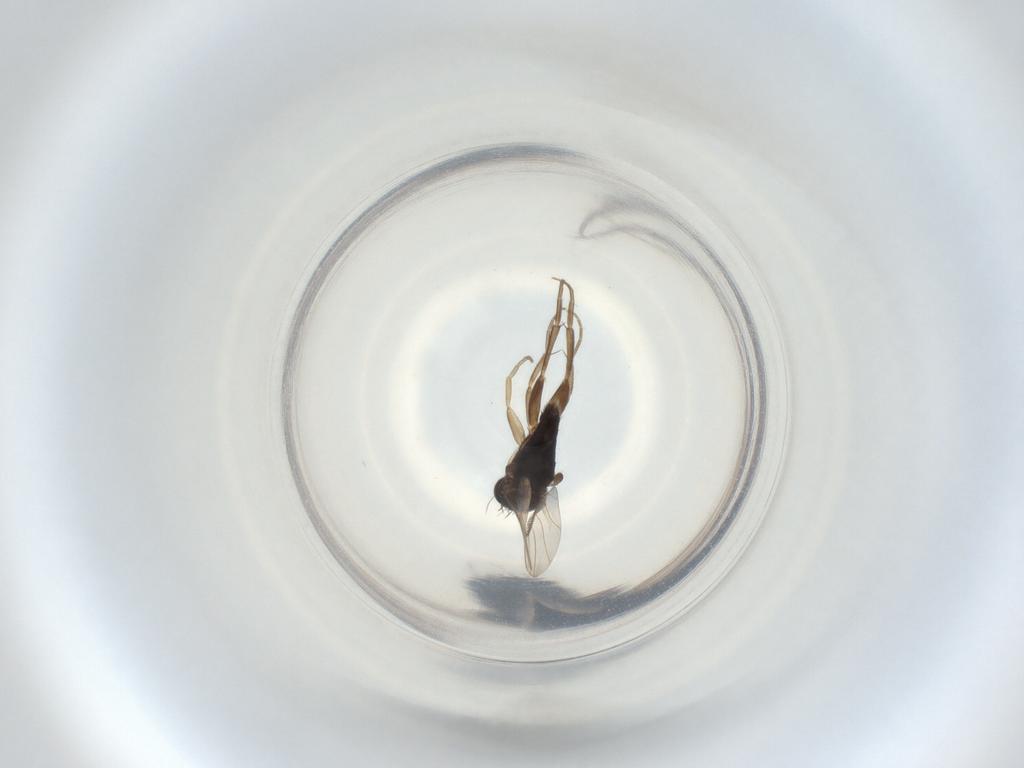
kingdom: Animalia
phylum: Arthropoda
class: Insecta
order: Diptera
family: Phoridae
